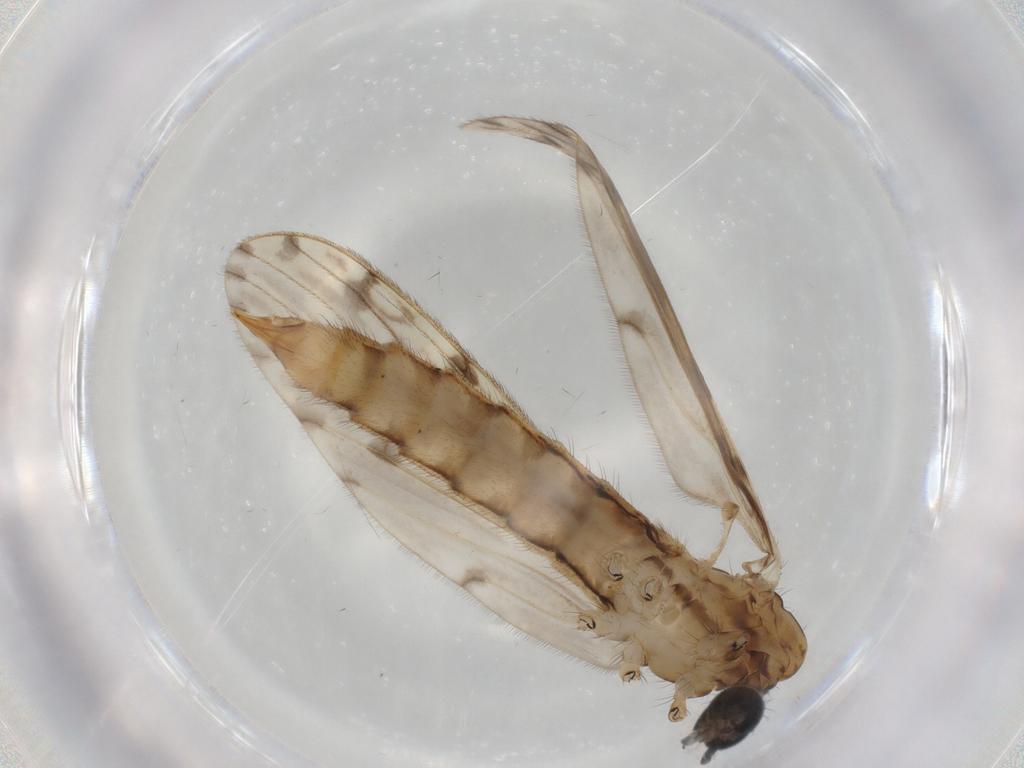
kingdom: Animalia
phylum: Arthropoda
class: Insecta
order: Diptera
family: Ceratopogonidae
